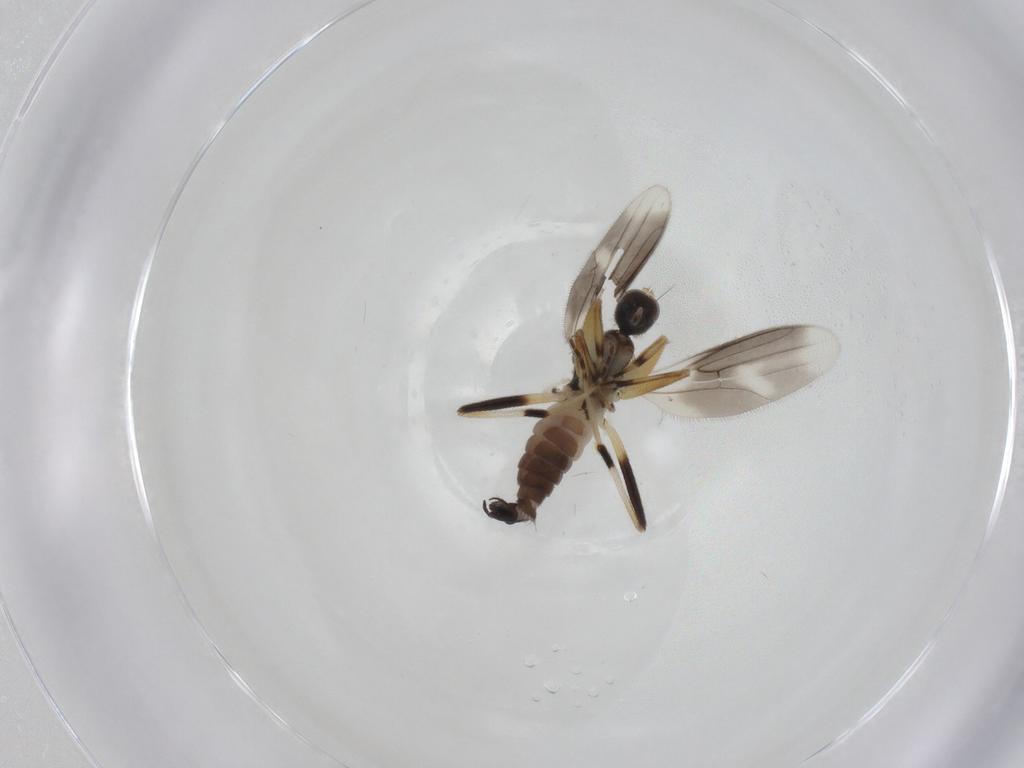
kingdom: Animalia
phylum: Arthropoda
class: Insecta
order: Diptera
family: Hybotidae
